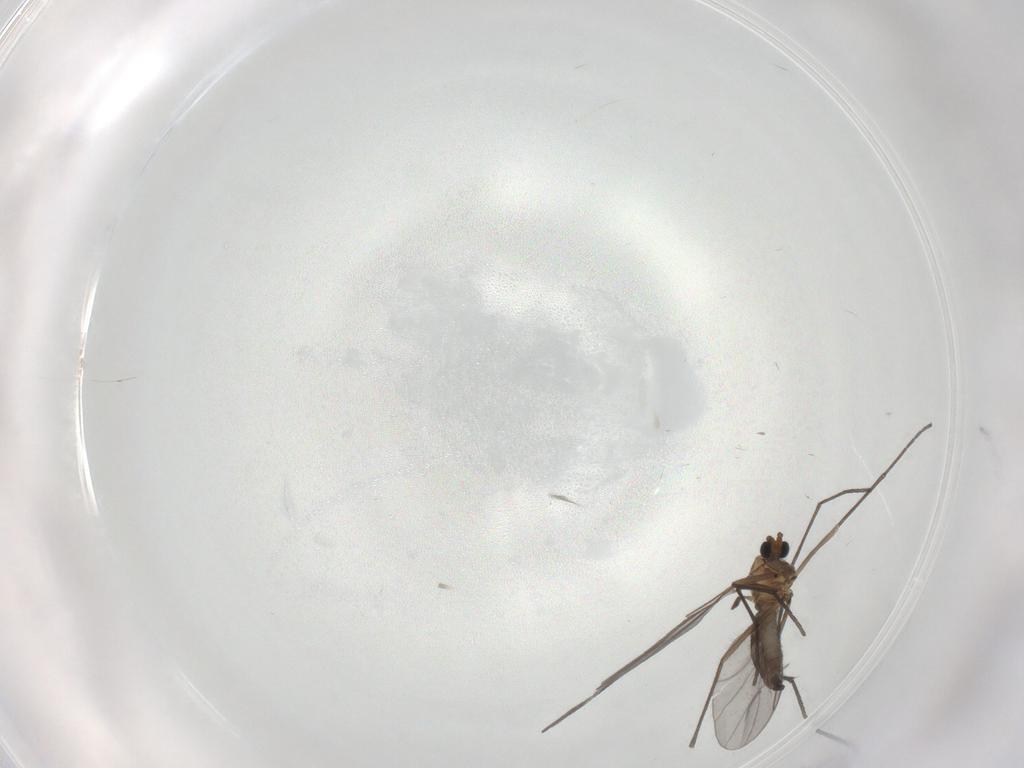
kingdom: Animalia
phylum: Arthropoda
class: Insecta
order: Diptera
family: Sciaridae
